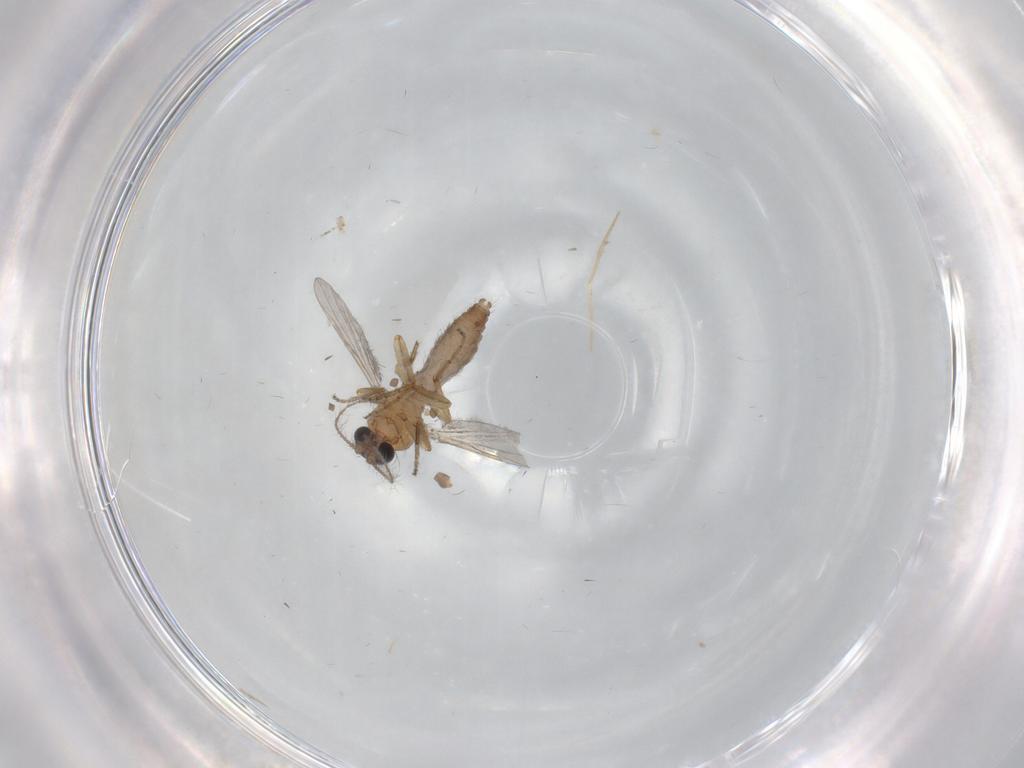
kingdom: Animalia
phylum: Arthropoda
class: Insecta
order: Diptera
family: Ceratopogonidae
